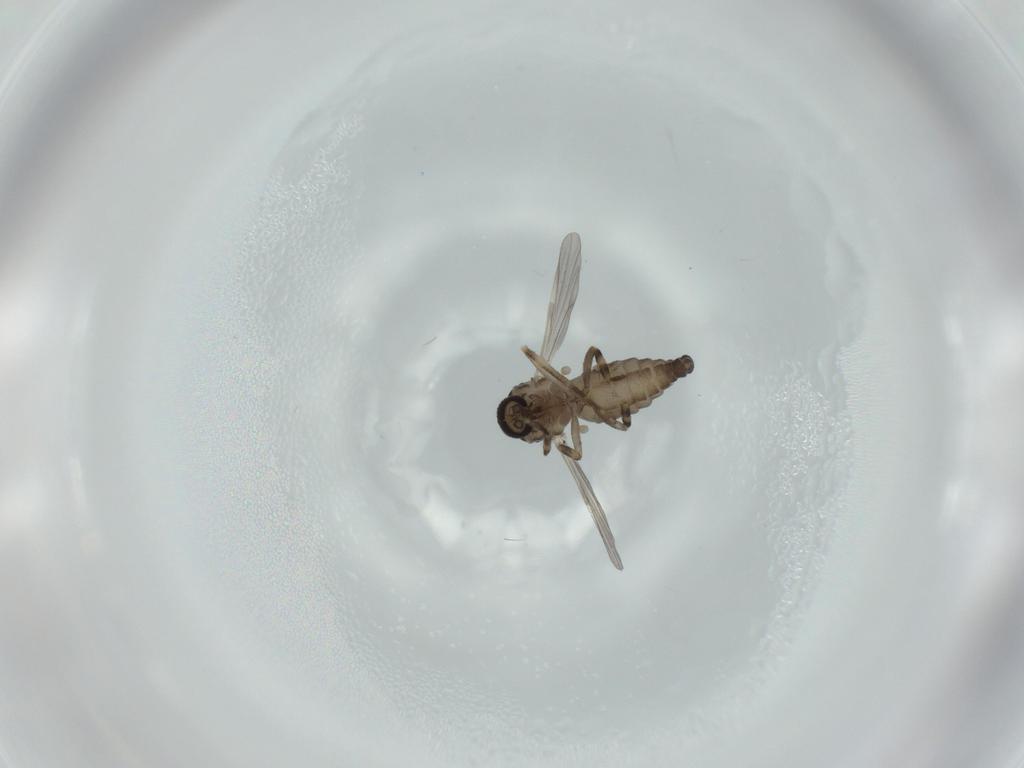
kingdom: Animalia
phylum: Arthropoda
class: Insecta
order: Diptera
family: Ceratopogonidae
